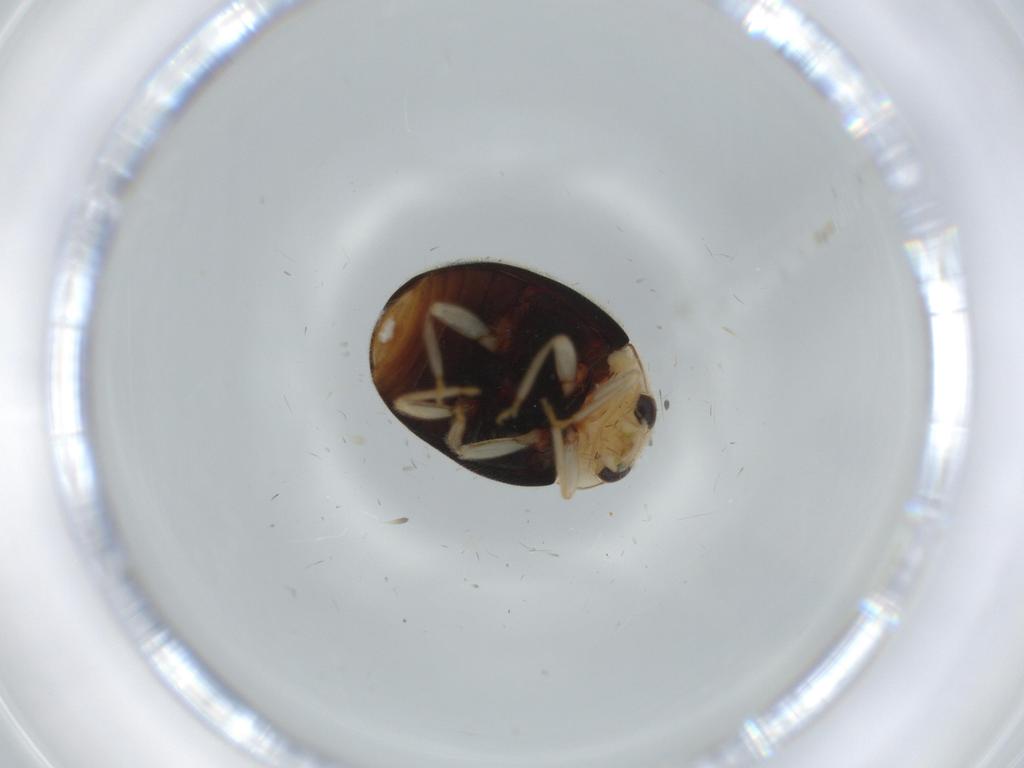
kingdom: Animalia
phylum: Arthropoda
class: Insecta
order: Coleoptera
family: Coccinellidae
